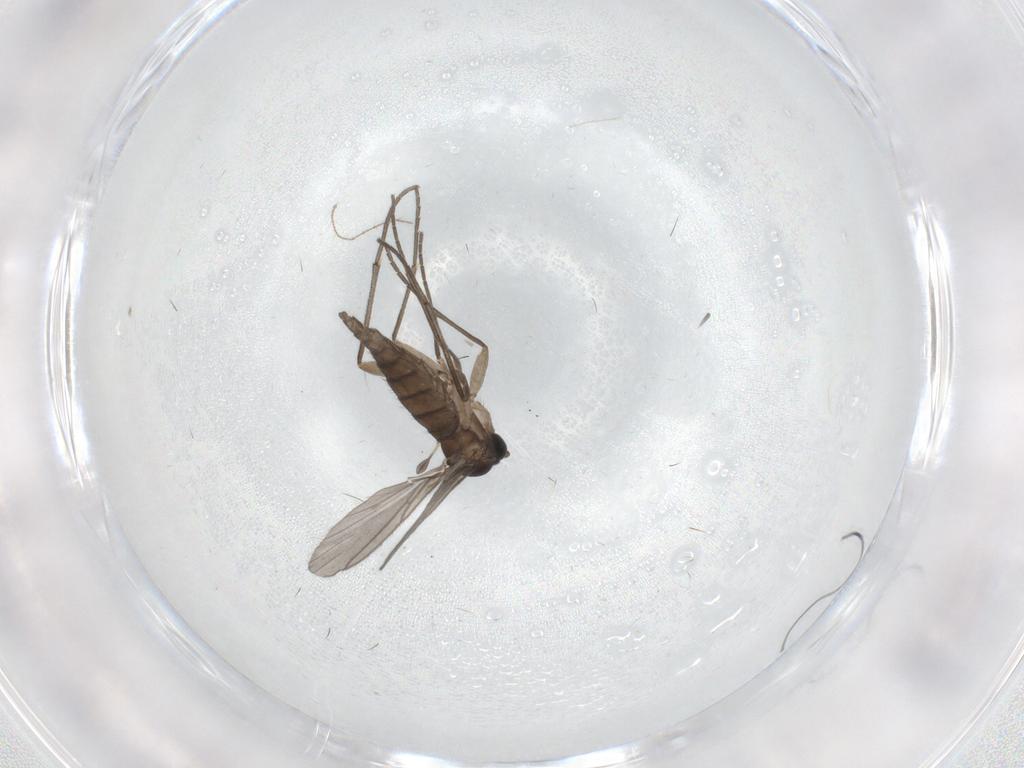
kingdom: Animalia
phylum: Arthropoda
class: Insecta
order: Diptera
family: Sciaridae
